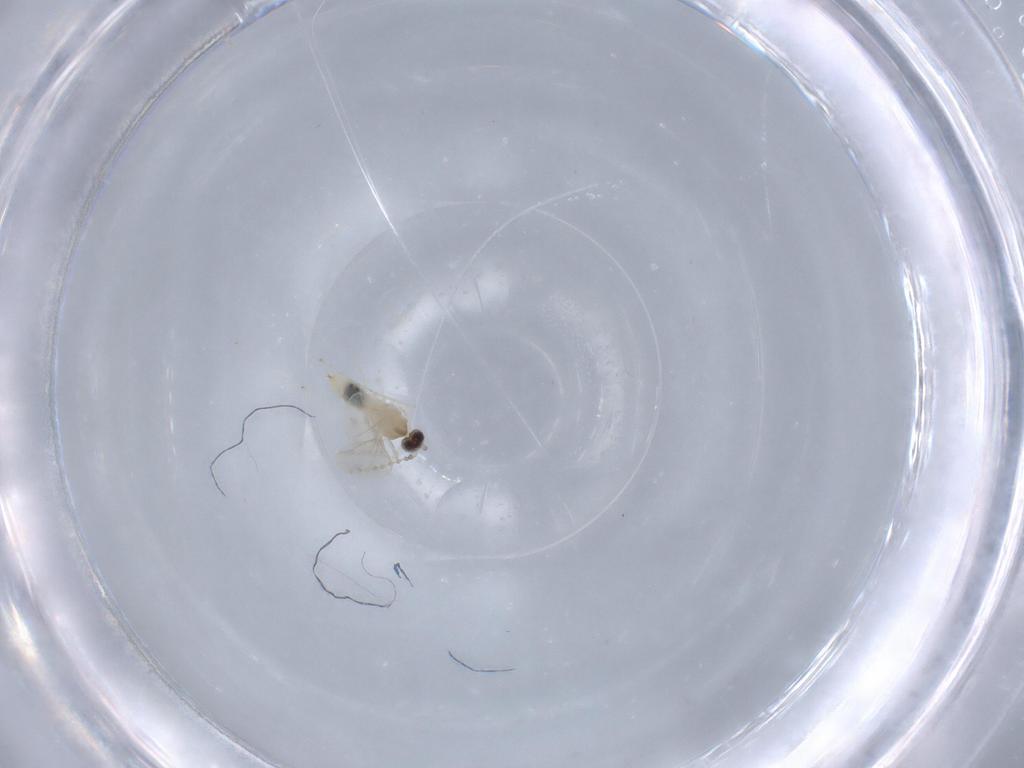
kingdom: Animalia
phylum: Arthropoda
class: Insecta
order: Diptera
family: Cecidomyiidae
